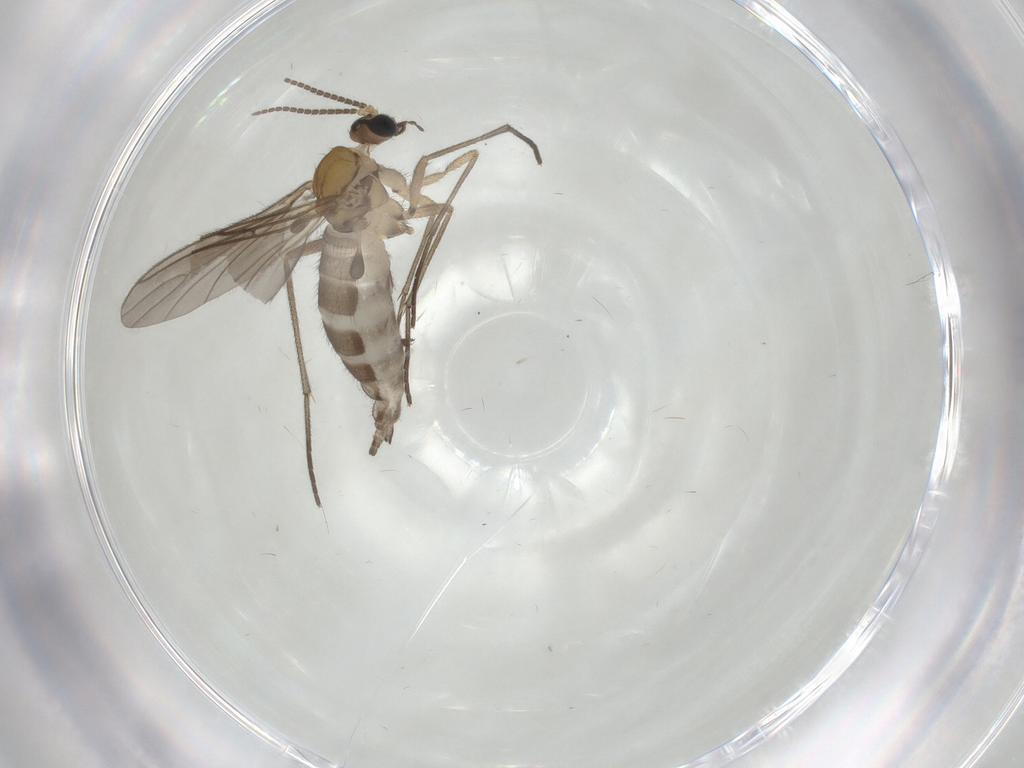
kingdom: Animalia
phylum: Arthropoda
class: Insecta
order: Diptera
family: Sciaridae
